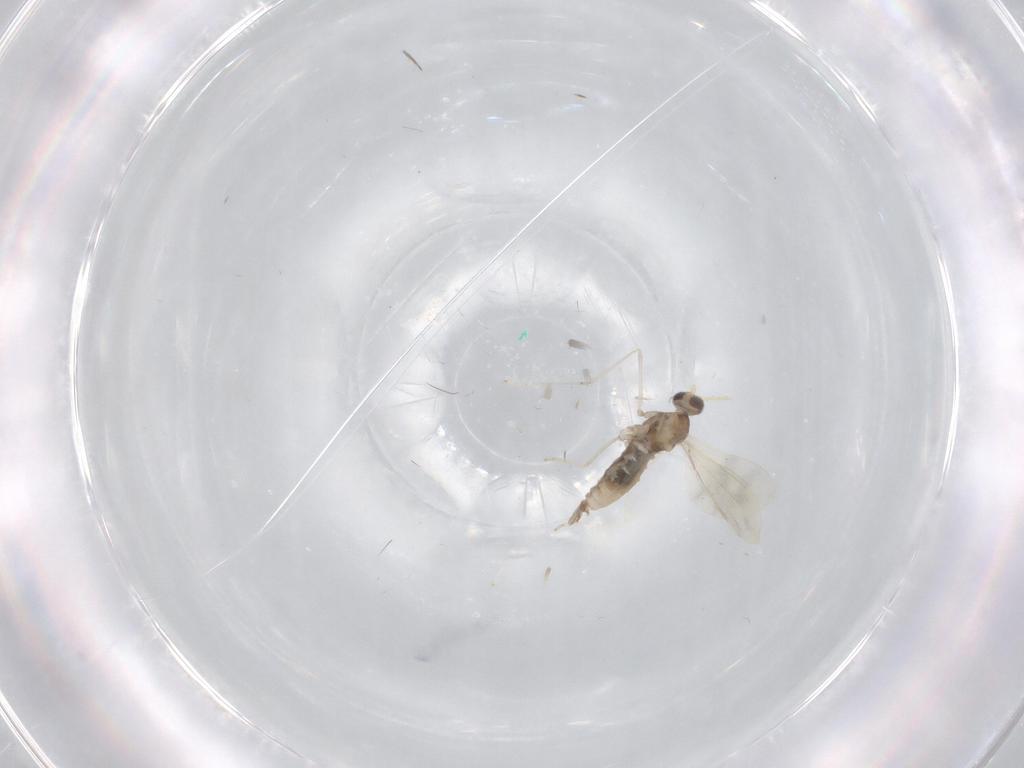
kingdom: Animalia
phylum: Arthropoda
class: Insecta
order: Diptera
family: Cecidomyiidae
